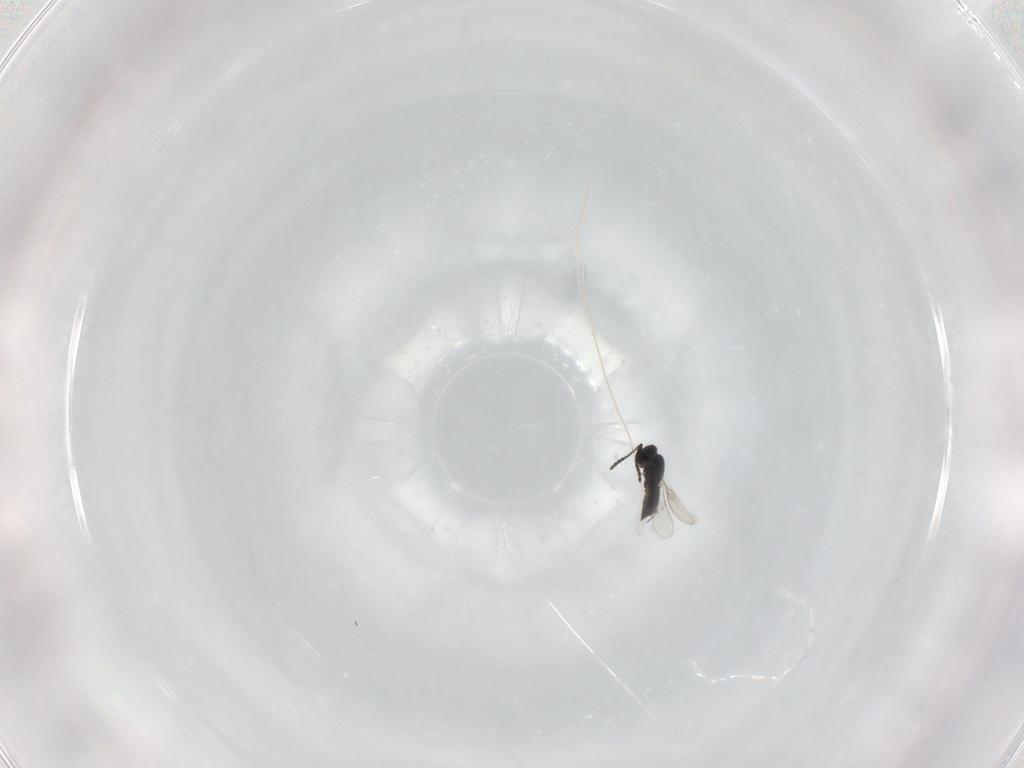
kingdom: Animalia
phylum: Arthropoda
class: Insecta
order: Hymenoptera
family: Scelionidae
